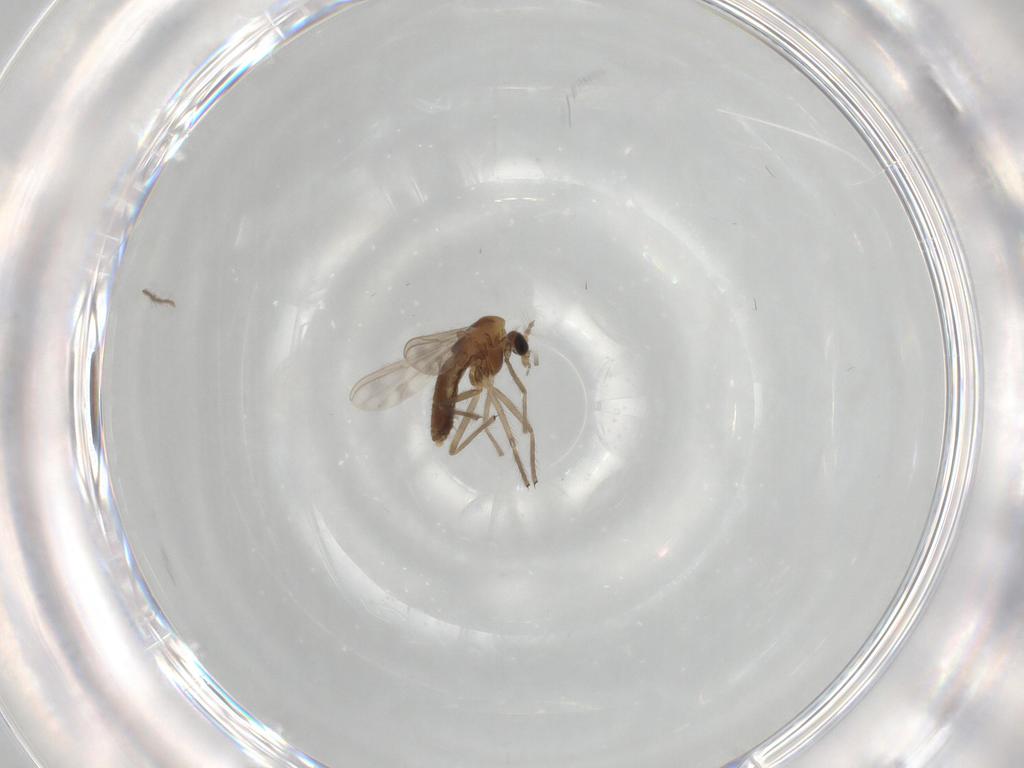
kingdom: Animalia
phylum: Arthropoda
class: Insecta
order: Diptera
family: Chironomidae
